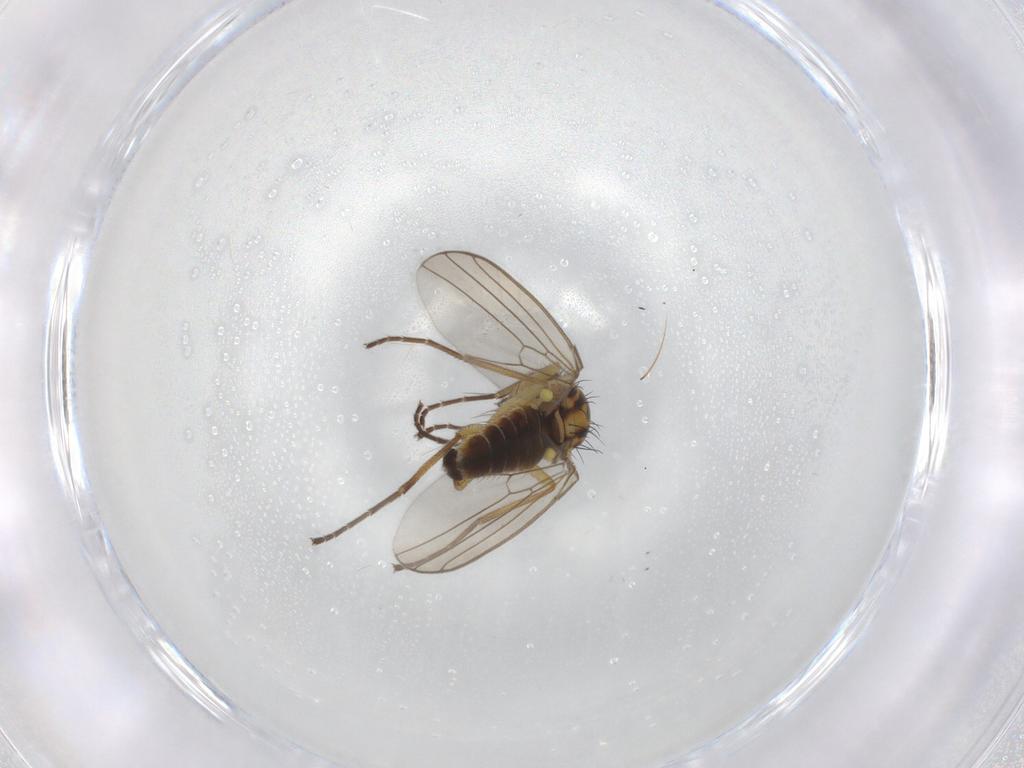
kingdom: Animalia
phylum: Arthropoda
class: Insecta
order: Diptera
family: Agromyzidae
